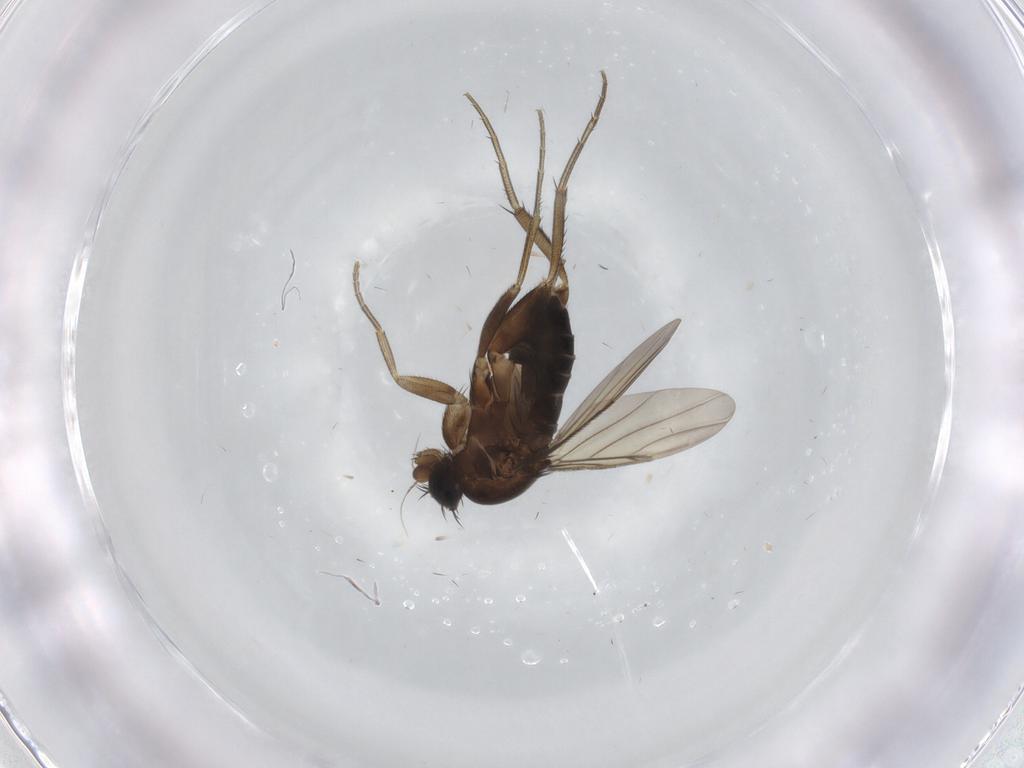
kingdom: Animalia
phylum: Arthropoda
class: Insecta
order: Diptera
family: Phoridae
